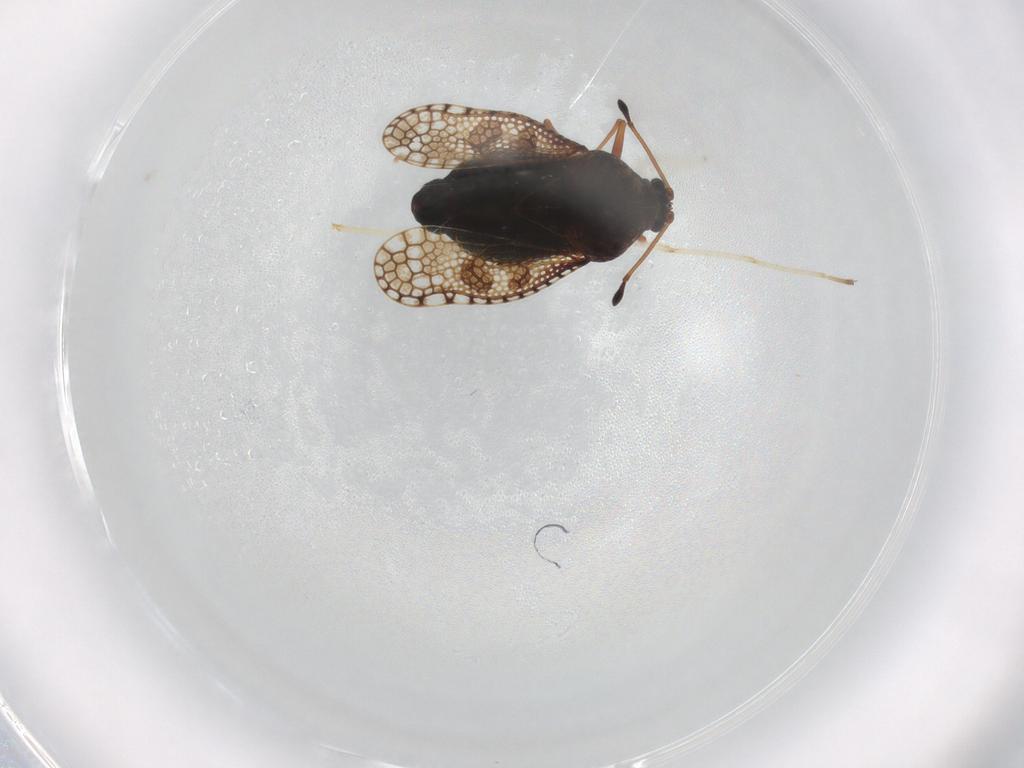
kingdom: Animalia
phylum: Arthropoda
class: Insecta
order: Hemiptera
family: Tingidae
